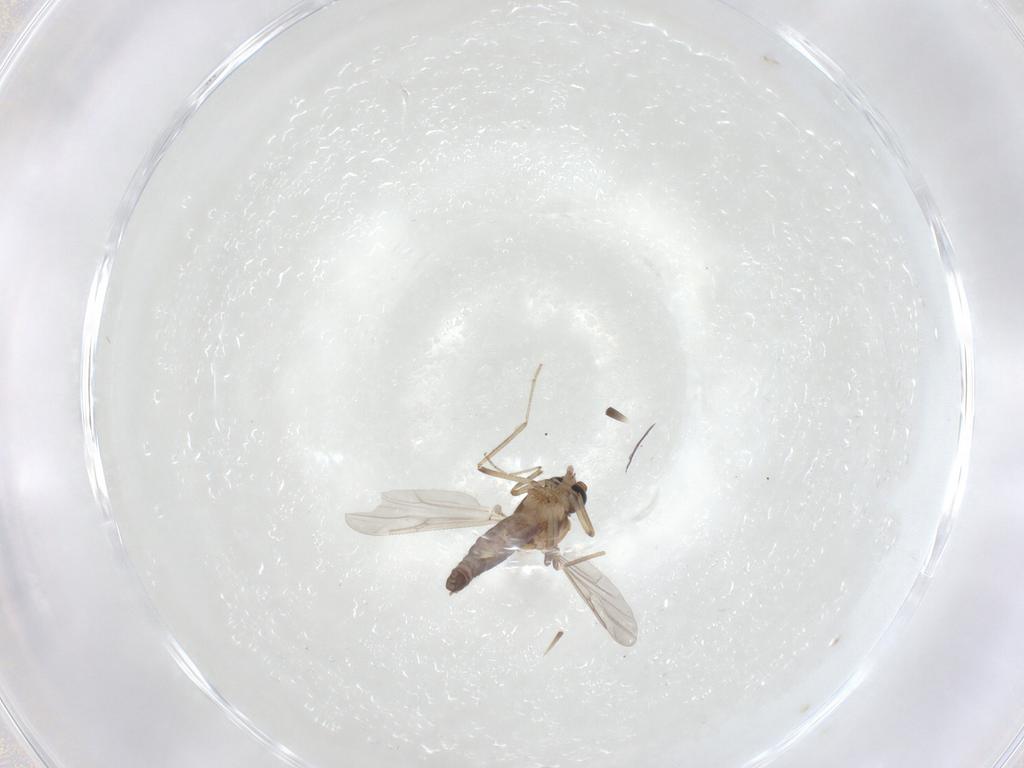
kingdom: Animalia
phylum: Arthropoda
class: Insecta
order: Diptera
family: Ceratopogonidae
